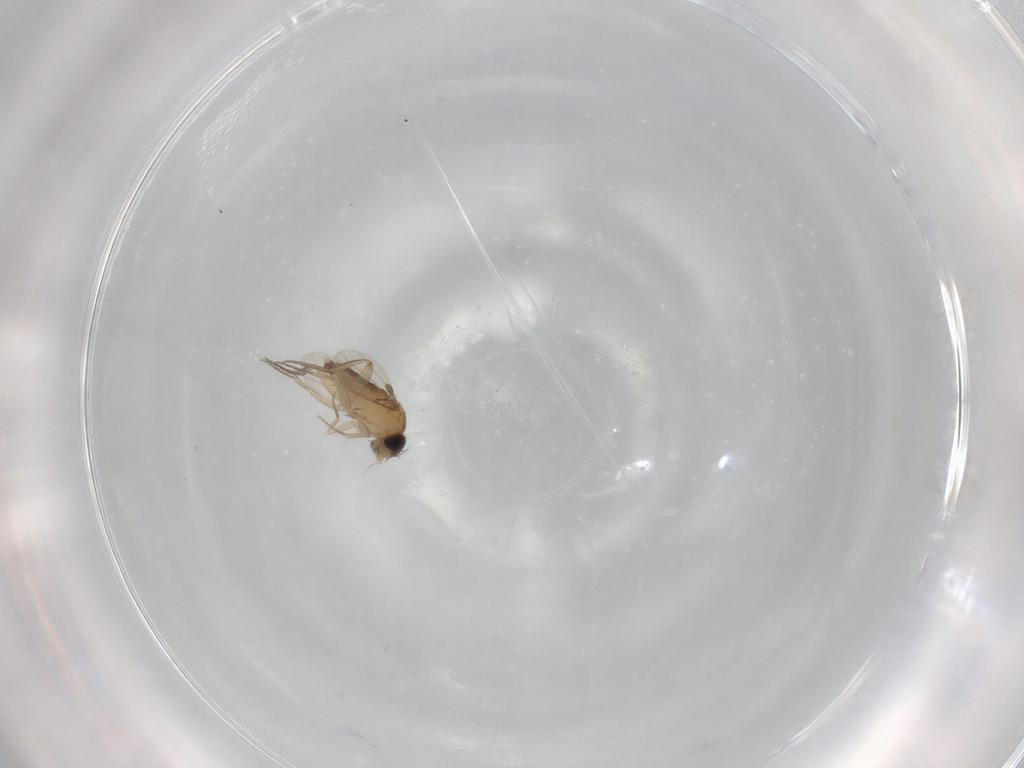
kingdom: Animalia
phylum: Arthropoda
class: Insecta
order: Diptera
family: Phoridae
